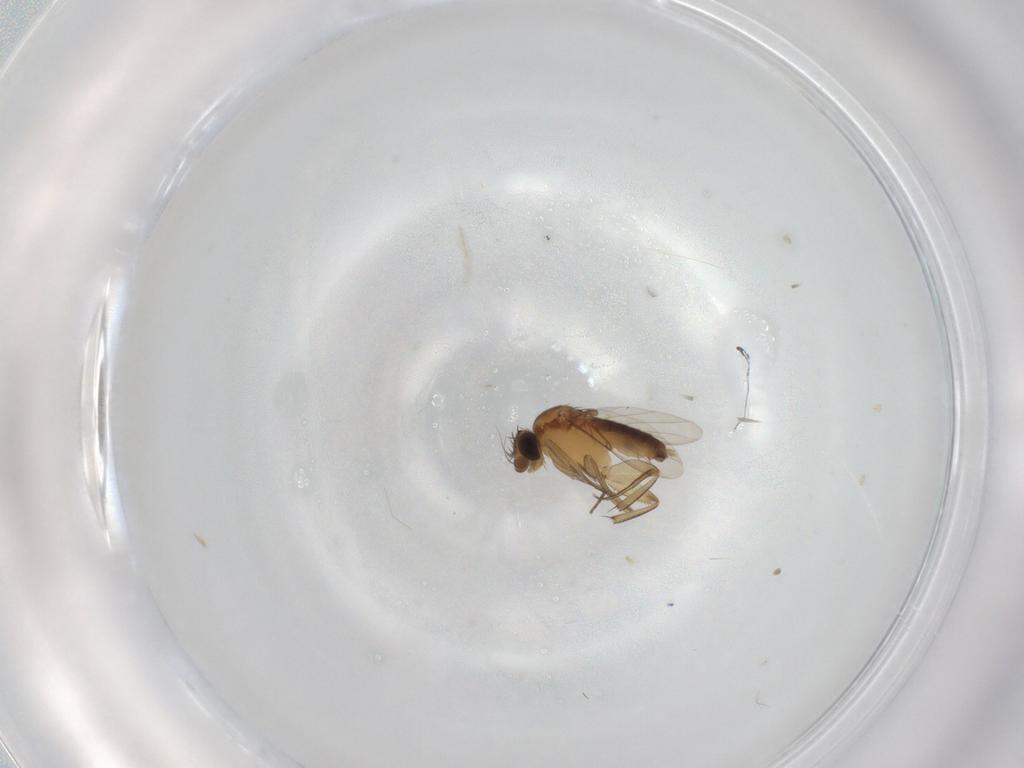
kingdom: Animalia
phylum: Arthropoda
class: Insecta
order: Diptera
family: Cecidomyiidae
